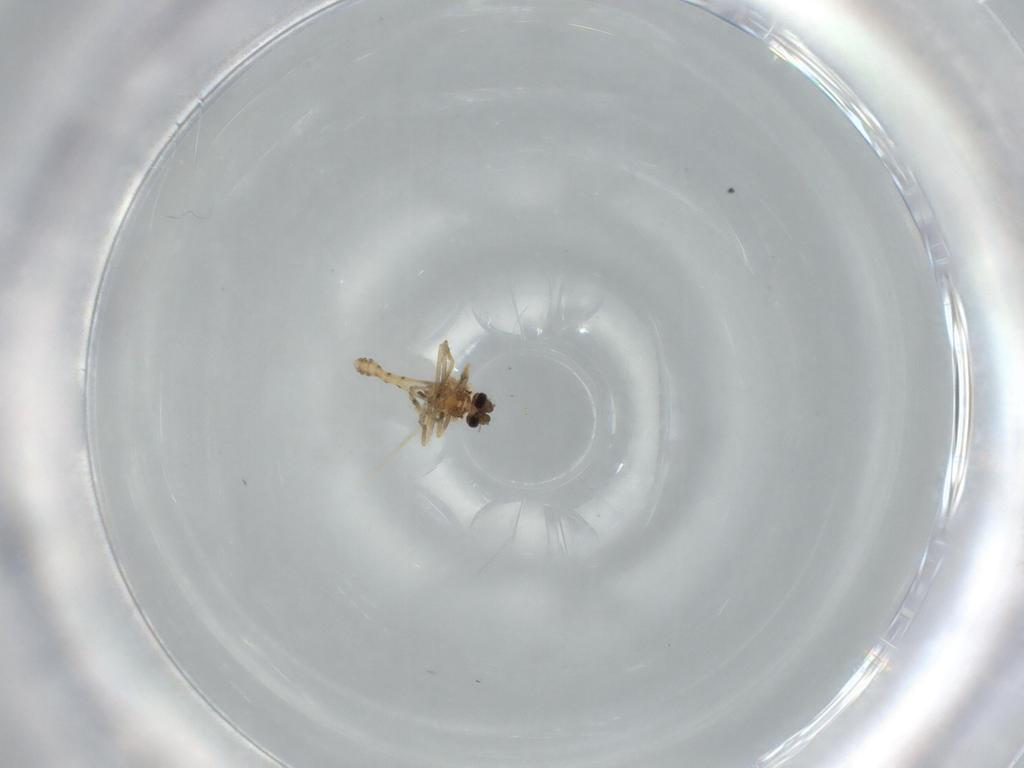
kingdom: Animalia
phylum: Arthropoda
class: Insecta
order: Diptera
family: Ceratopogonidae
